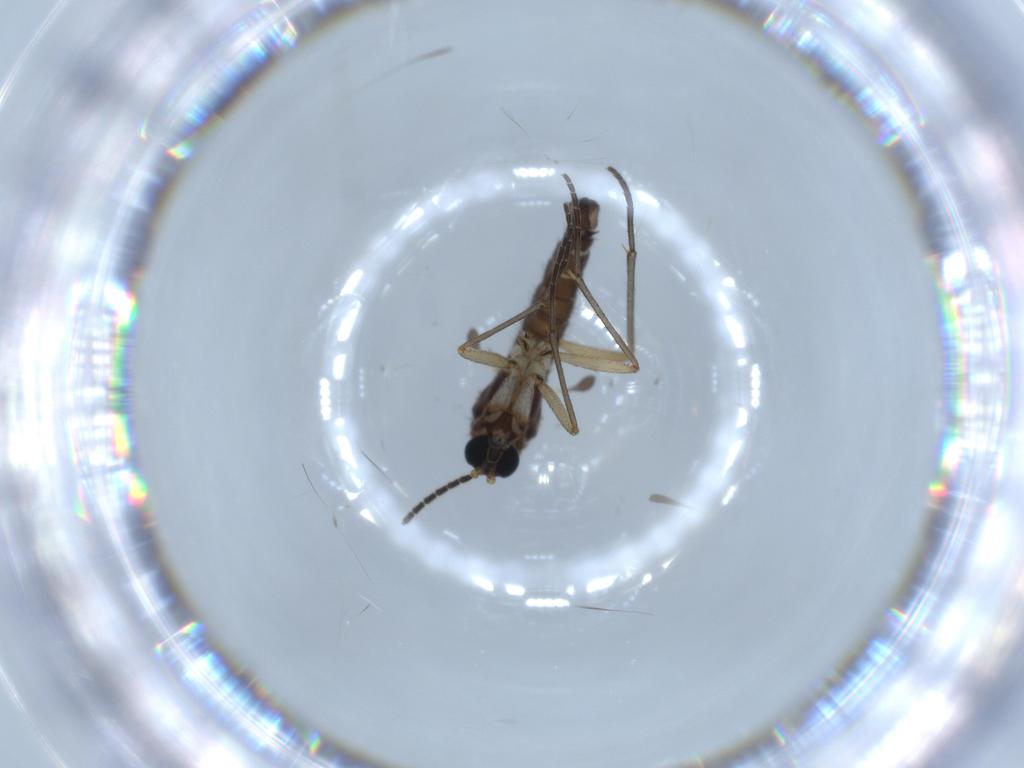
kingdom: Animalia
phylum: Arthropoda
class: Insecta
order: Diptera
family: Sciaridae
